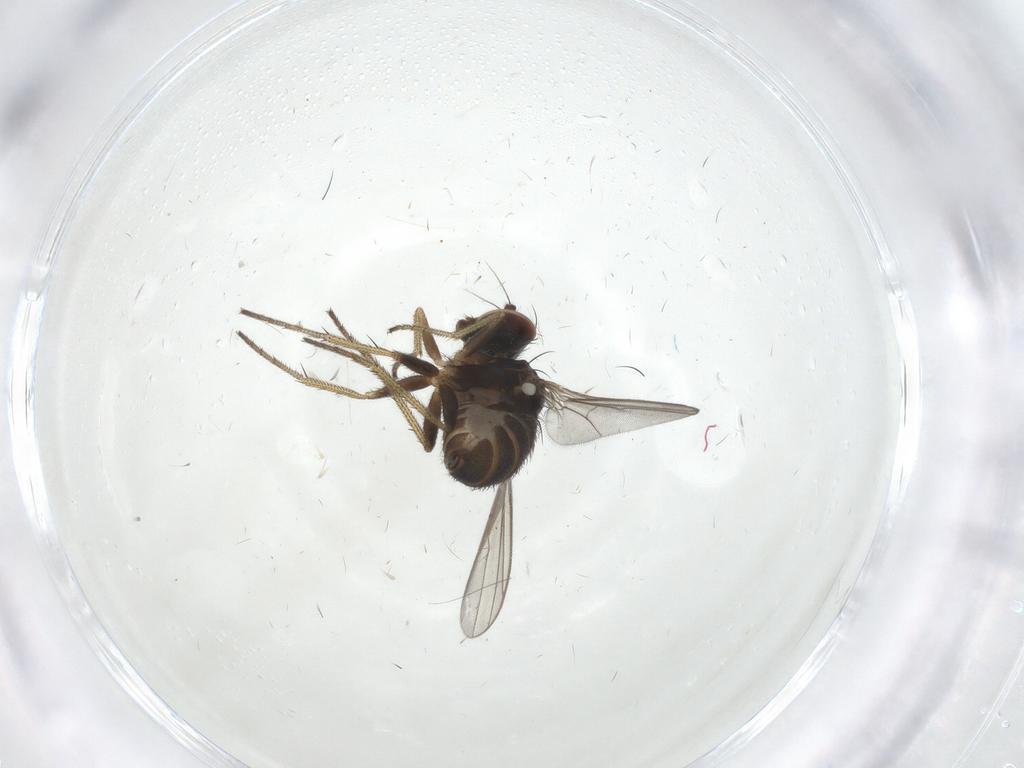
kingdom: Animalia
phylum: Arthropoda
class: Insecta
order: Diptera
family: Dolichopodidae
